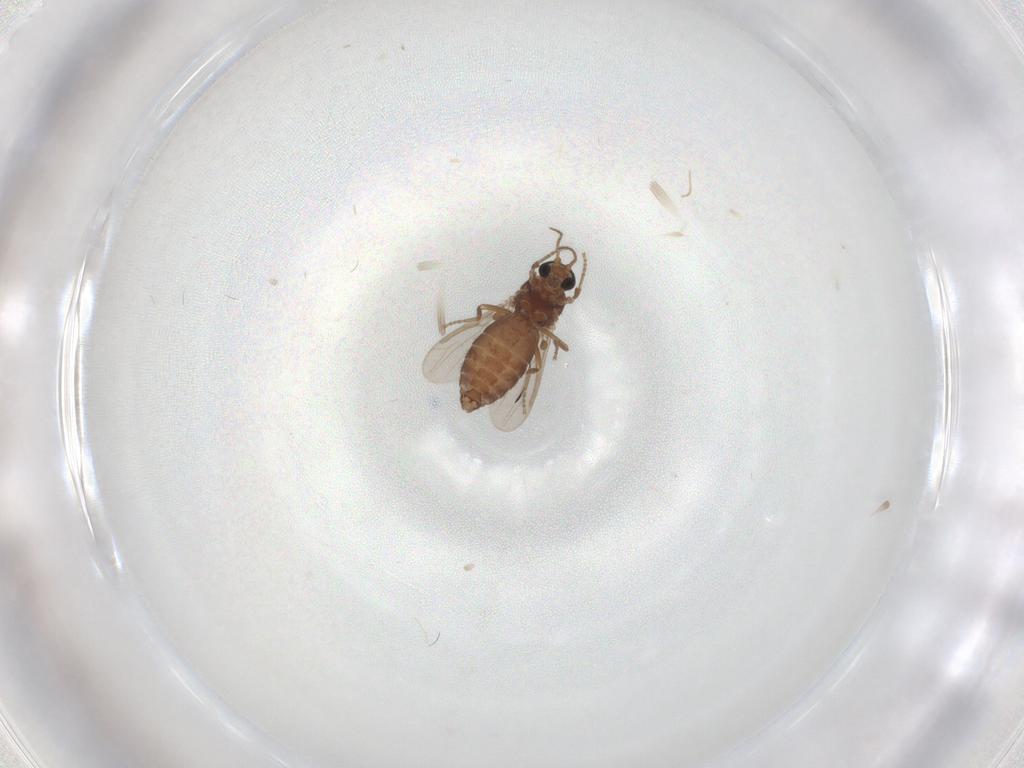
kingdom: Animalia
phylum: Arthropoda
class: Insecta
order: Diptera
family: Ceratopogonidae
